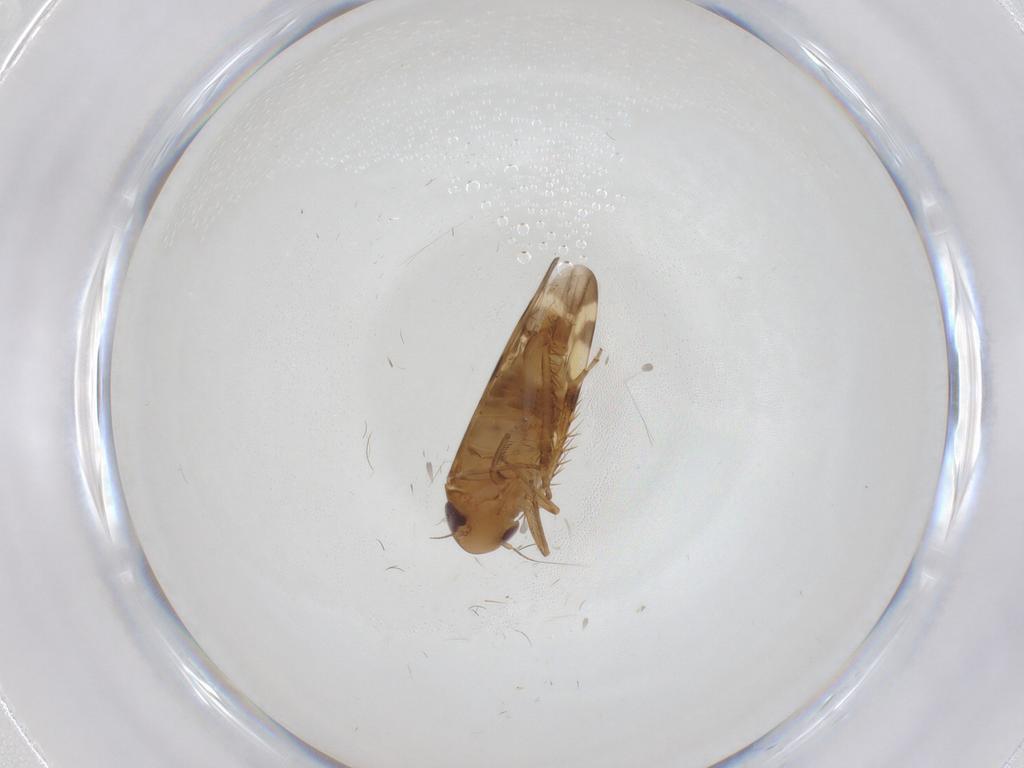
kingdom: Animalia
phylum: Arthropoda
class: Insecta
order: Hemiptera
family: Cicadellidae
